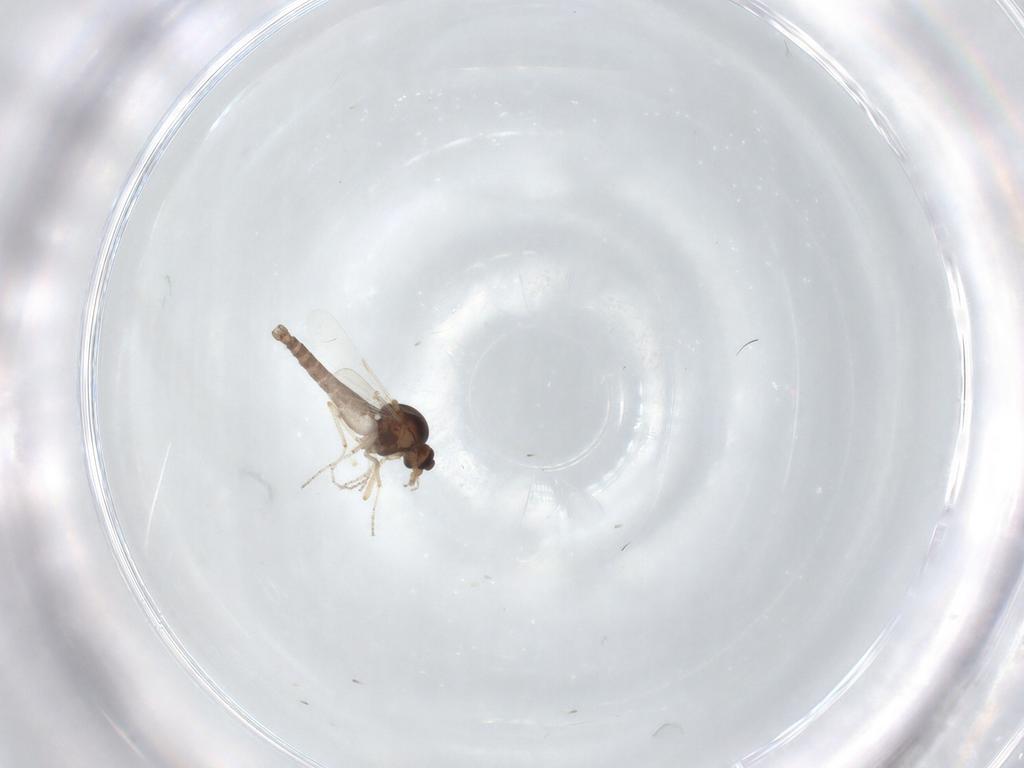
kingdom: Animalia
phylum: Arthropoda
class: Insecta
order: Diptera
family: Ceratopogonidae
